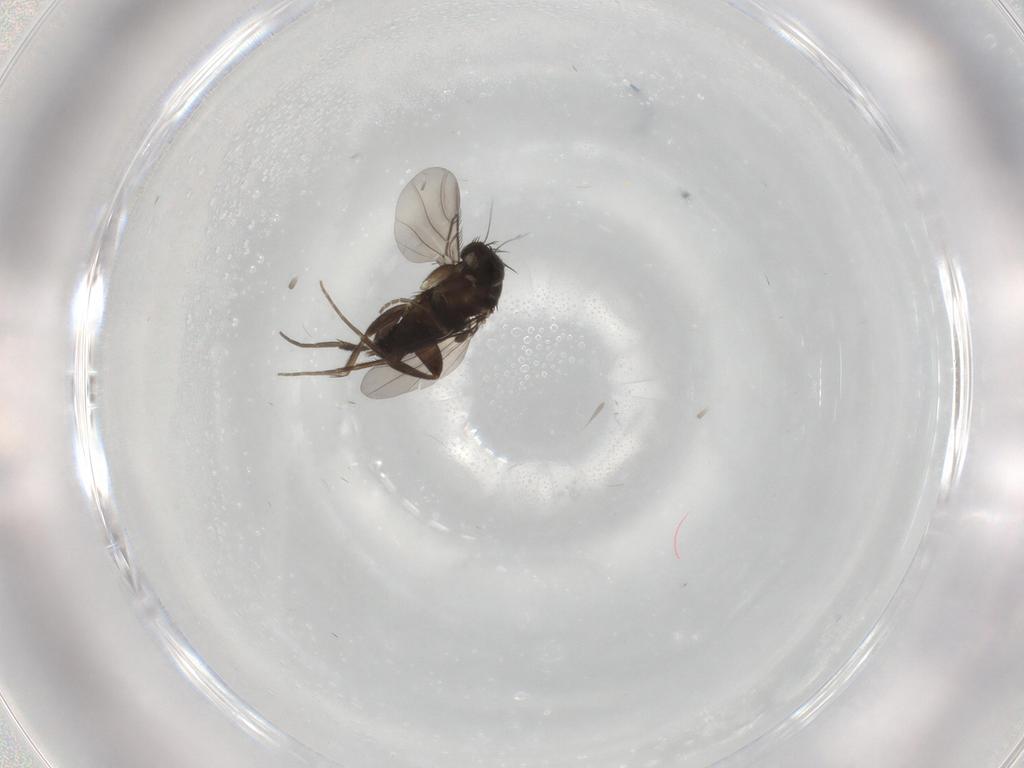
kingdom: Animalia
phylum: Arthropoda
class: Insecta
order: Diptera
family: Phoridae
